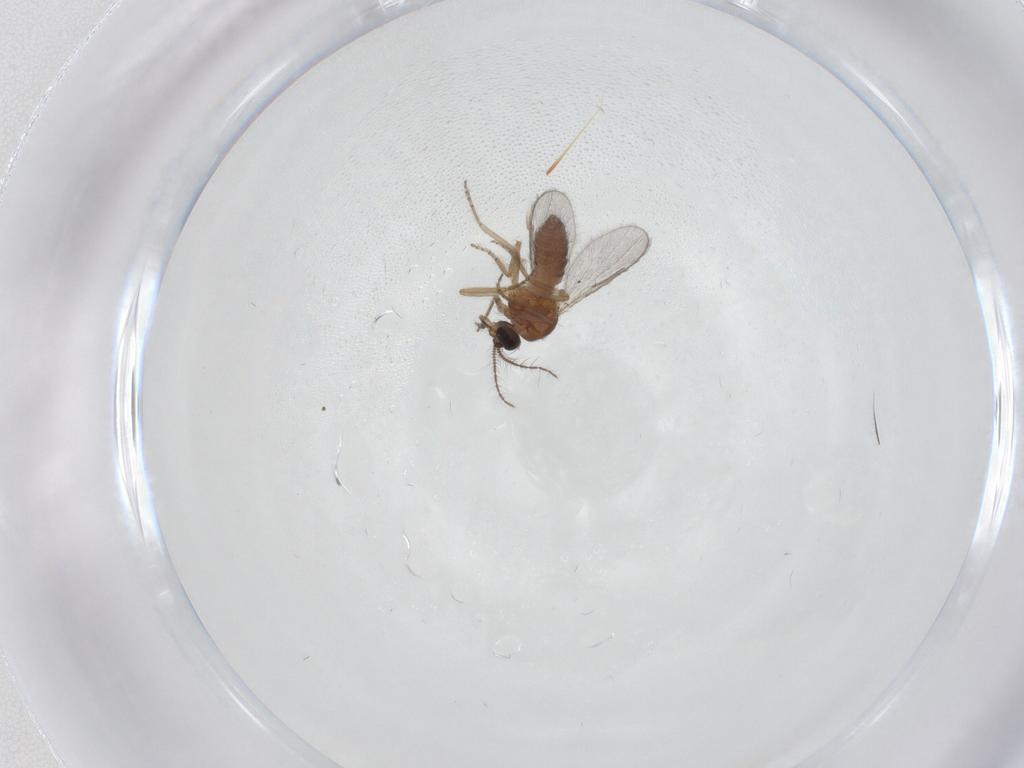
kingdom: Animalia
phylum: Arthropoda
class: Insecta
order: Diptera
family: Ceratopogonidae
